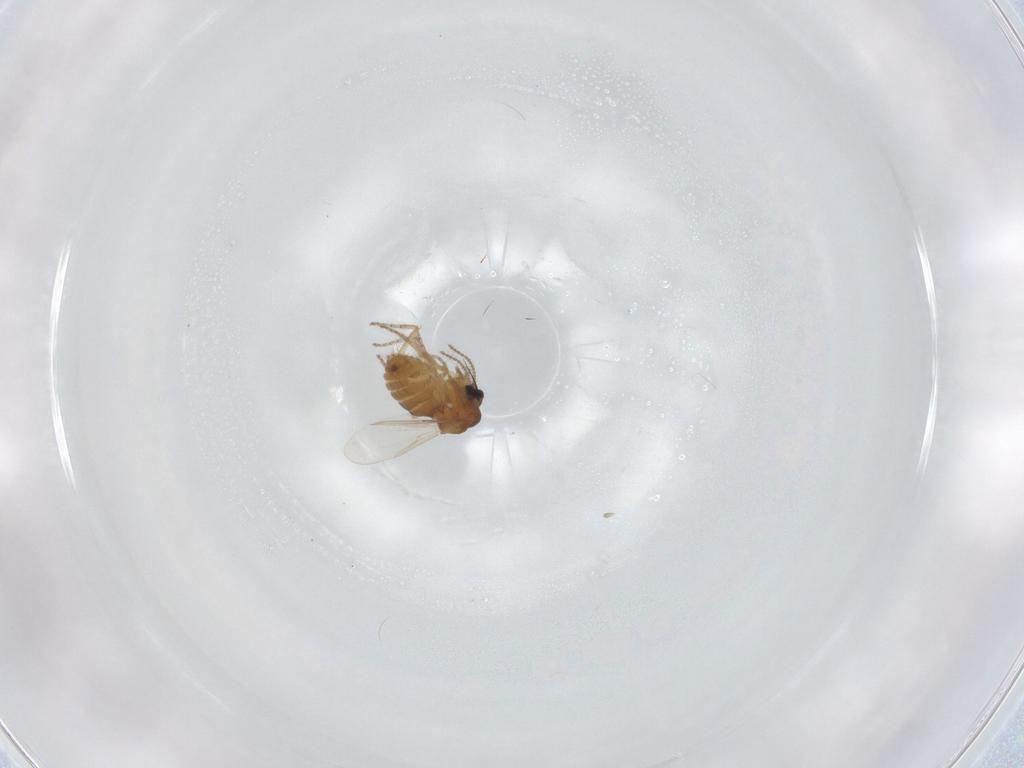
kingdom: Animalia
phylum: Arthropoda
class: Insecta
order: Diptera
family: Ceratopogonidae
